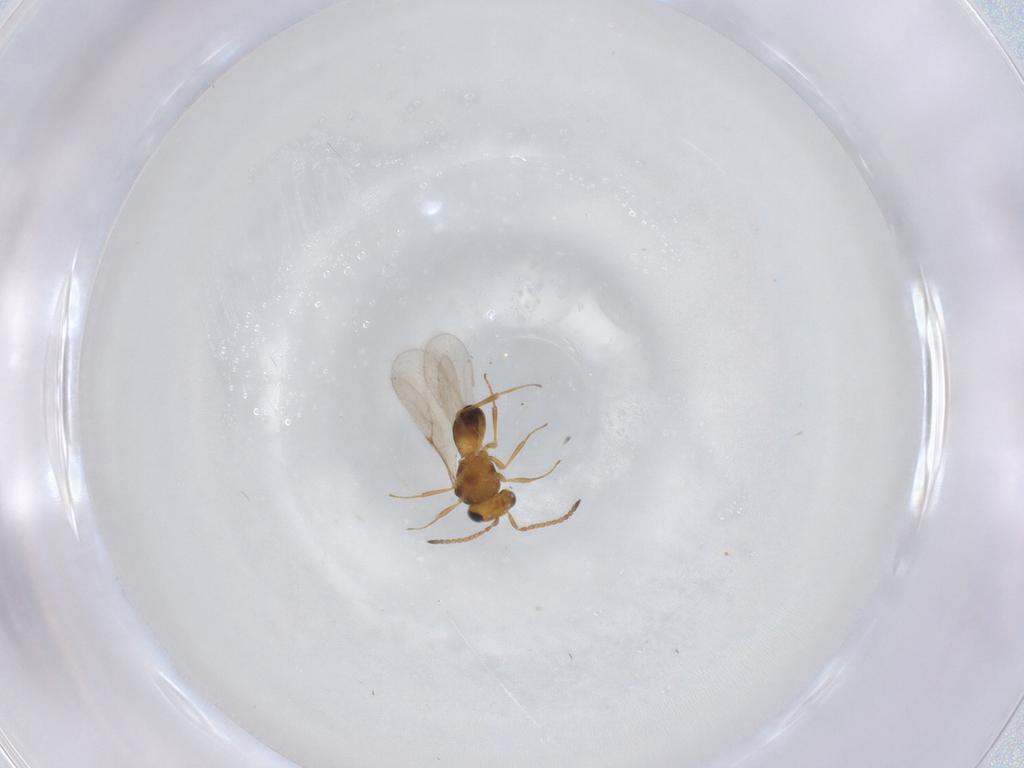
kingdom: Animalia
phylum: Arthropoda
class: Insecta
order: Hymenoptera
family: Scelionidae
